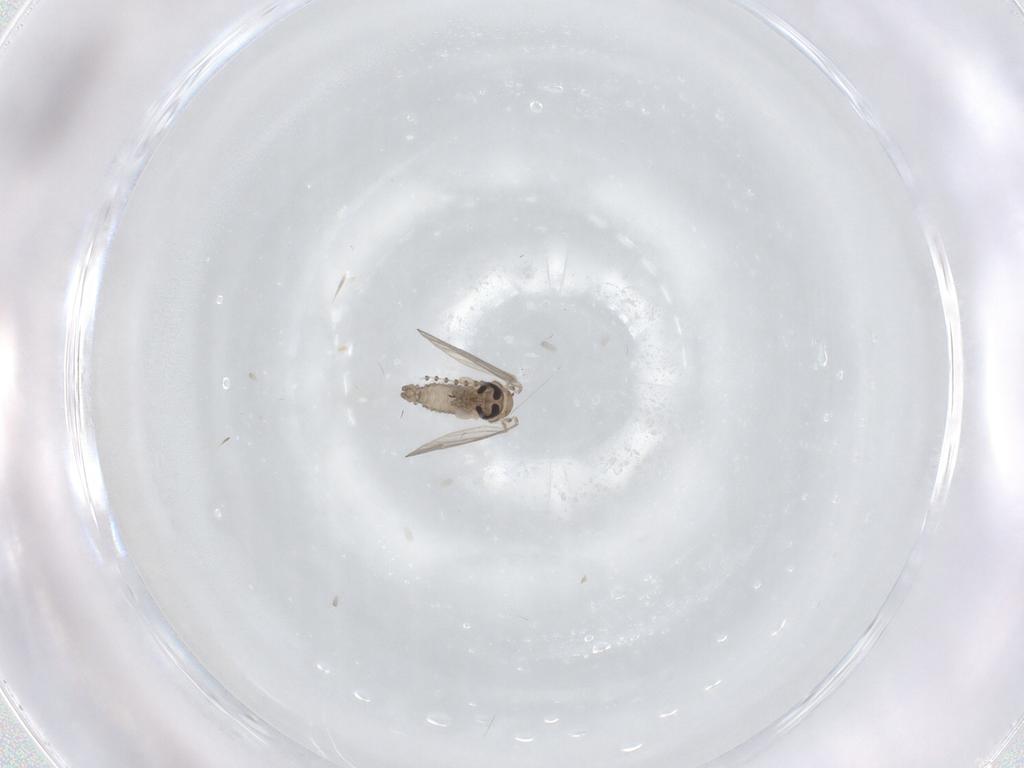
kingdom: Animalia
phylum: Arthropoda
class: Insecta
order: Diptera
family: Psychodidae
